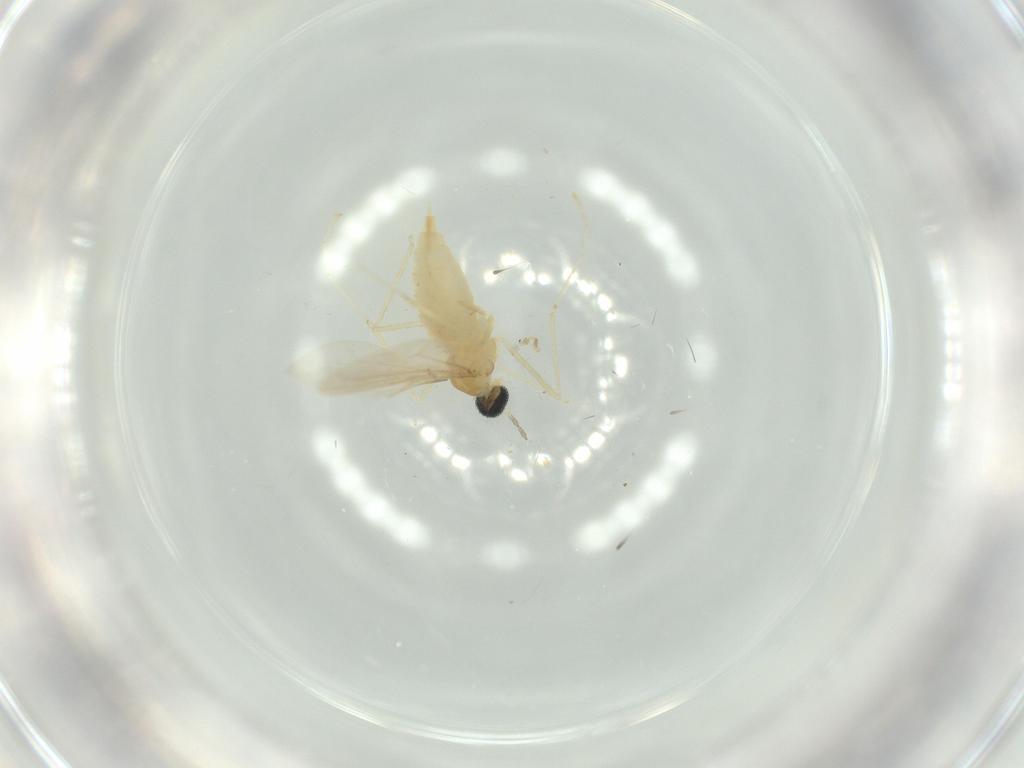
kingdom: Animalia
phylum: Arthropoda
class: Insecta
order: Diptera
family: Cecidomyiidae
